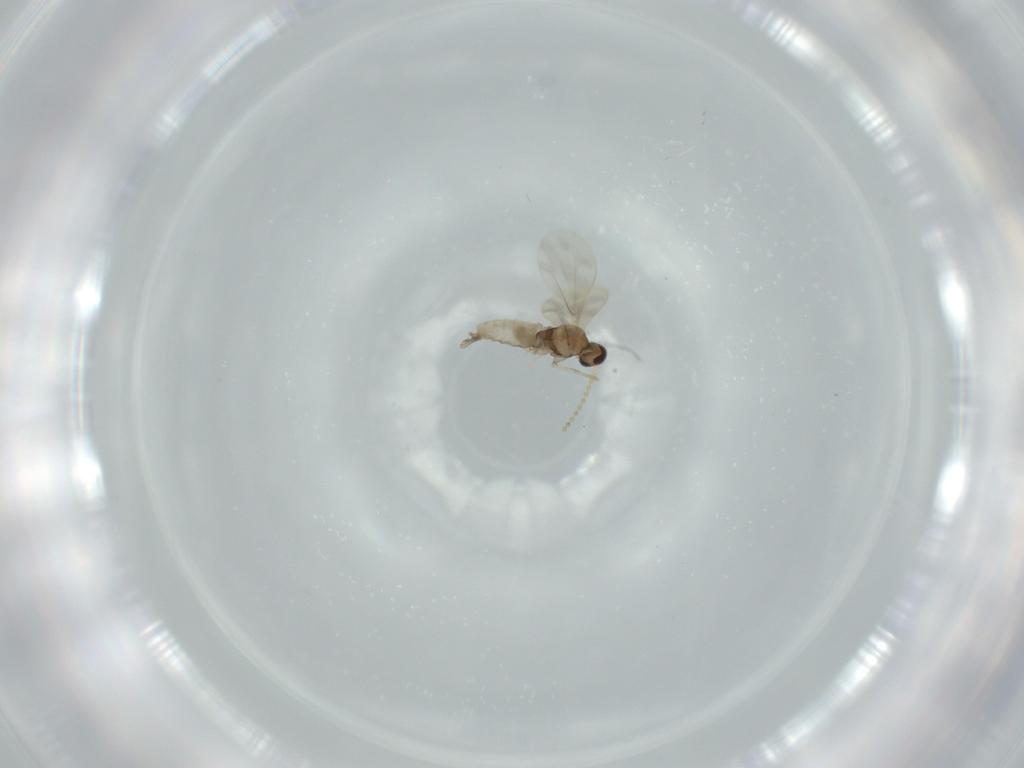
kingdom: Animalia
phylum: Arthropoda
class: Insecta
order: Diptera
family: Cecidomyiidae
